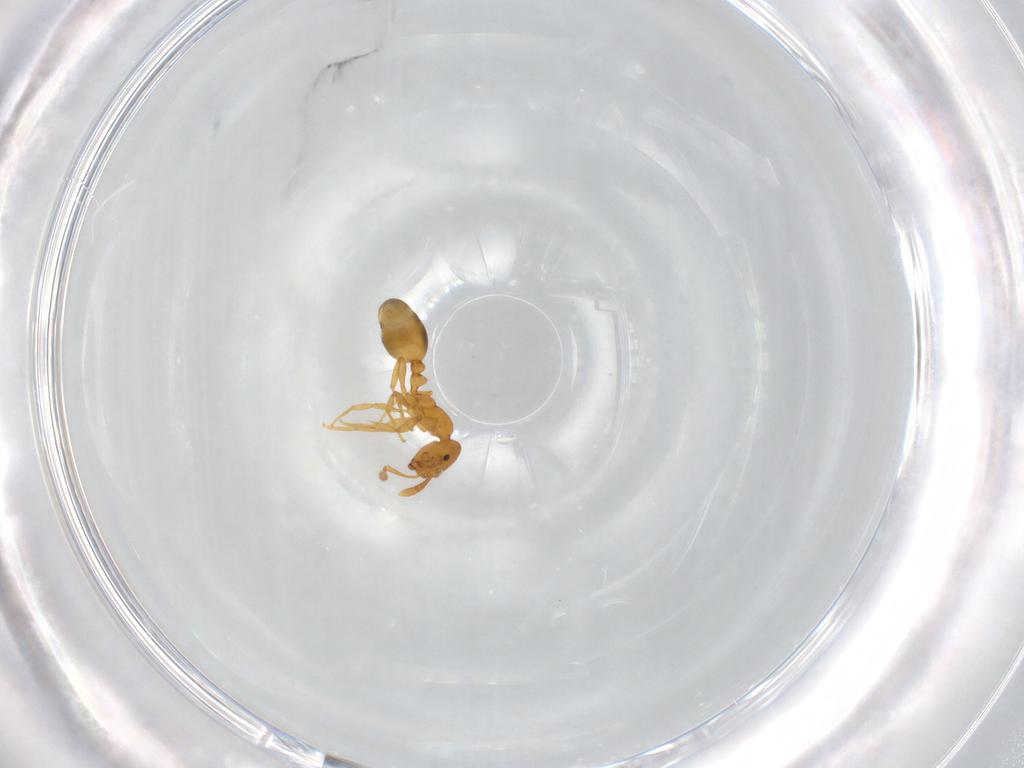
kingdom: Animalia
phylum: Arthropoda
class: Insecta
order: Hymenoptera
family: Formicidae
